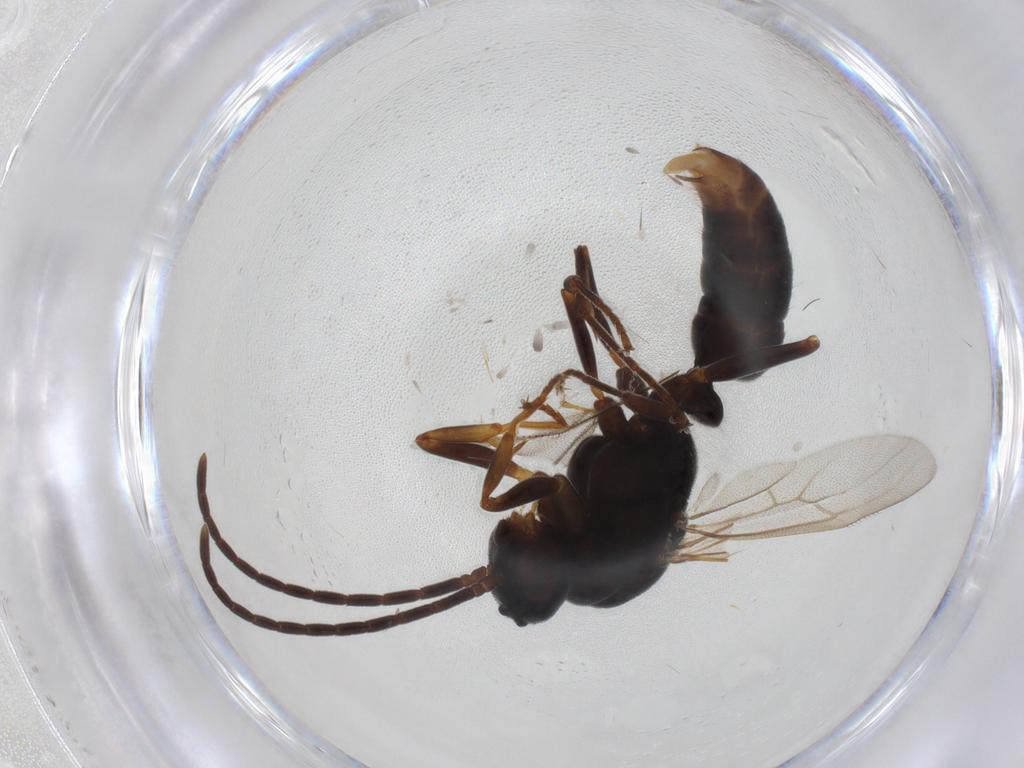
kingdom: Animalia
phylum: Arthropoda
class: Insecta
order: Hymenoptera
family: Formicidae
